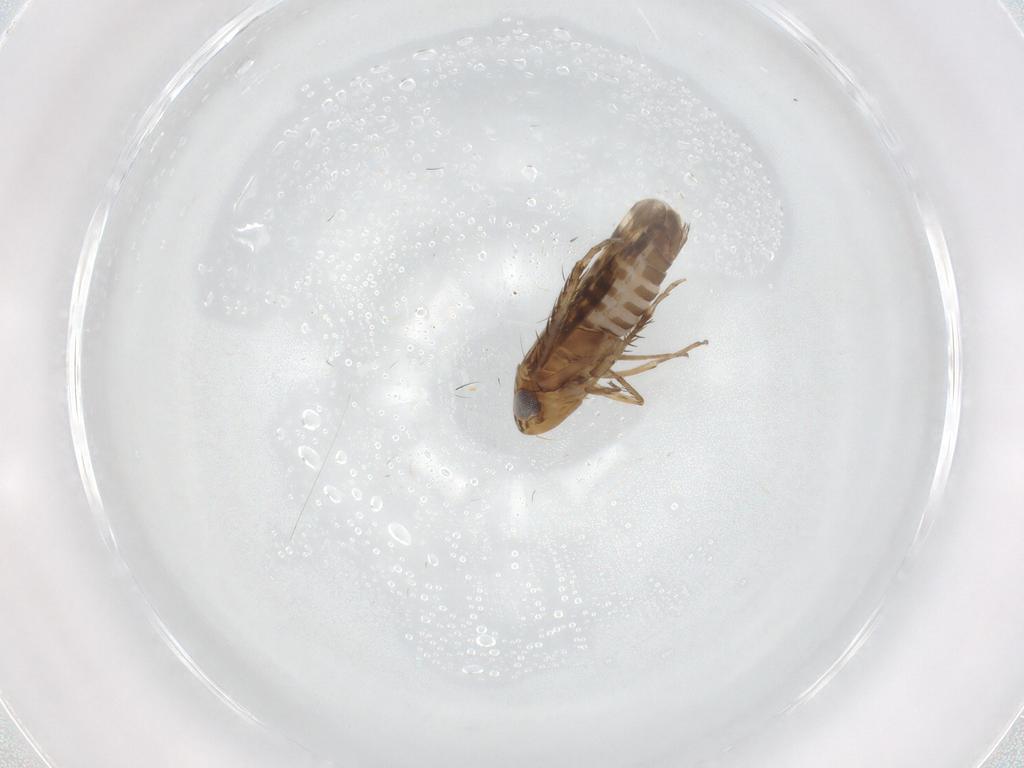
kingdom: Animalia
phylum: Arthropoda
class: Insecta
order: Hemiptera
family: Cicadellidae
